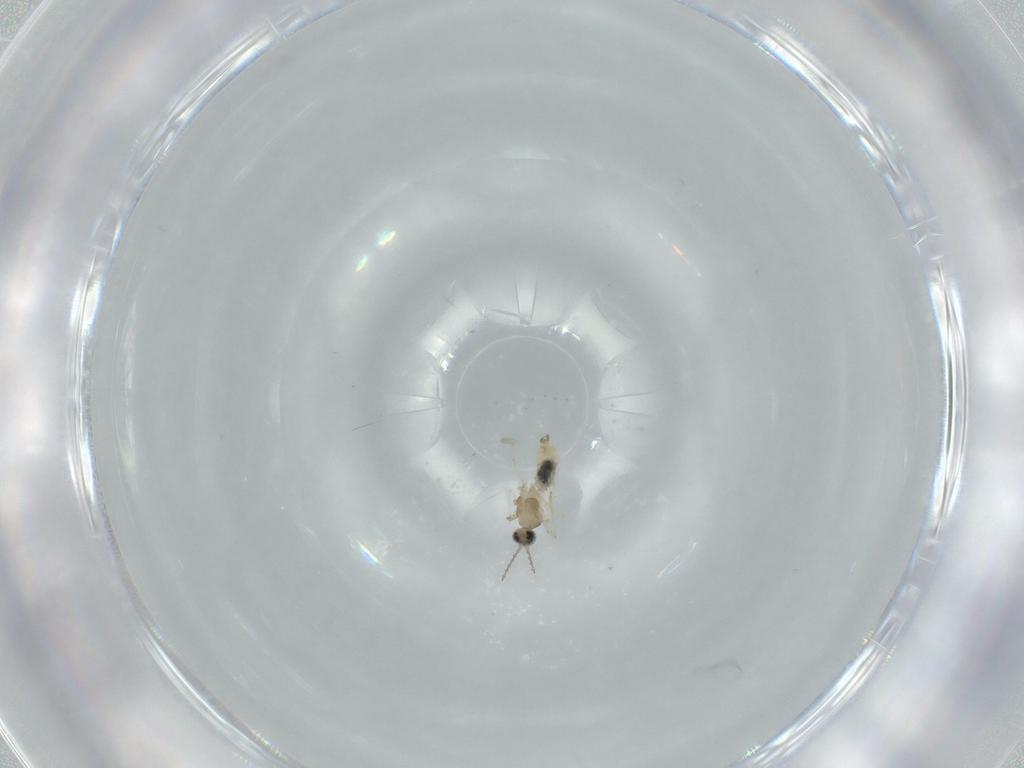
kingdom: Animalia
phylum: Arthropoda
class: Insecta
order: Diptera
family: Cecidomyiidae
